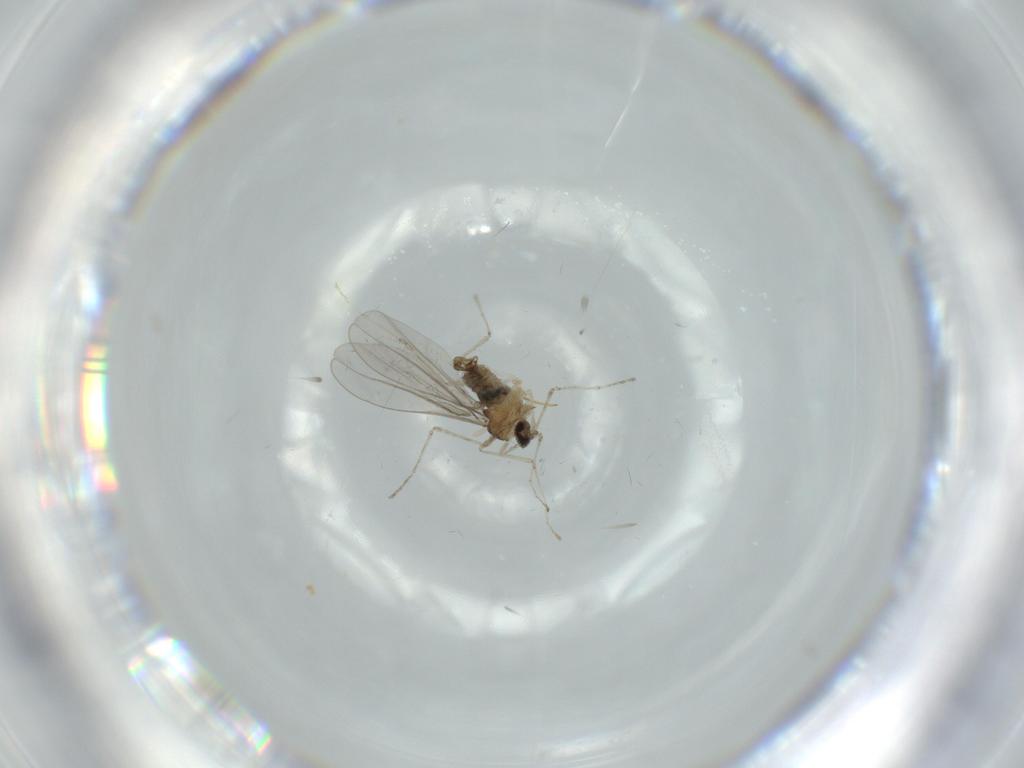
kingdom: Animalia
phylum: Arthropoda
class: Insecta
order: Diptera
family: Cecidomyiidae
